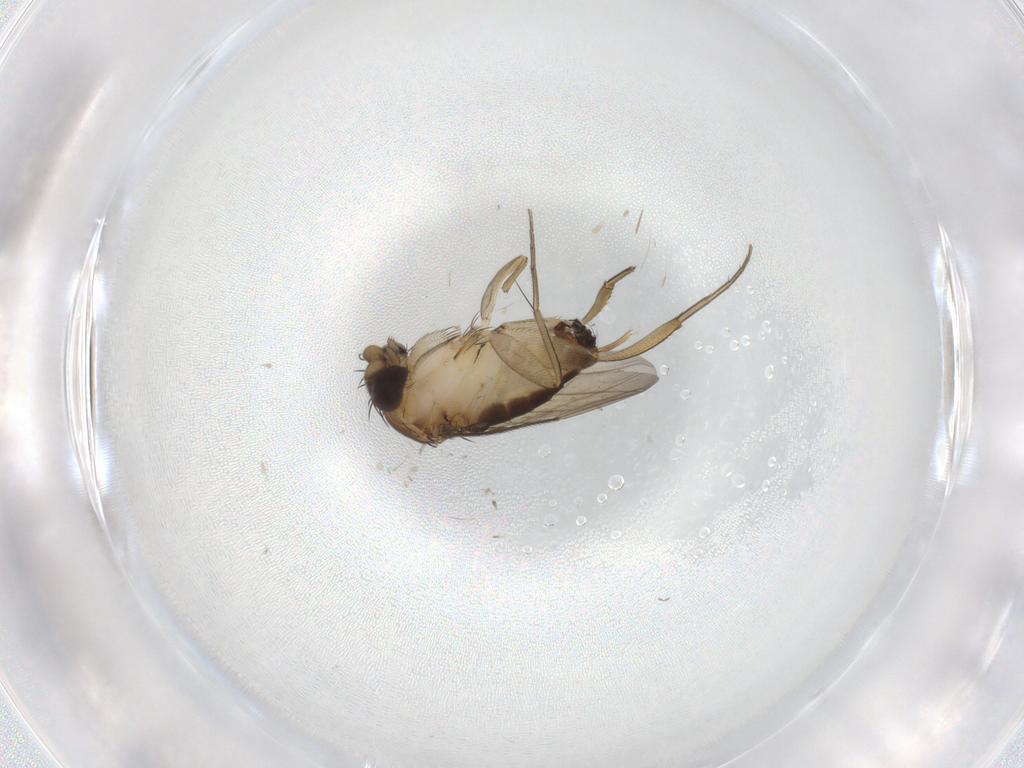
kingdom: Animalia
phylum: Arthropoda
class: Insecta
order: Diptera
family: Phoridae
